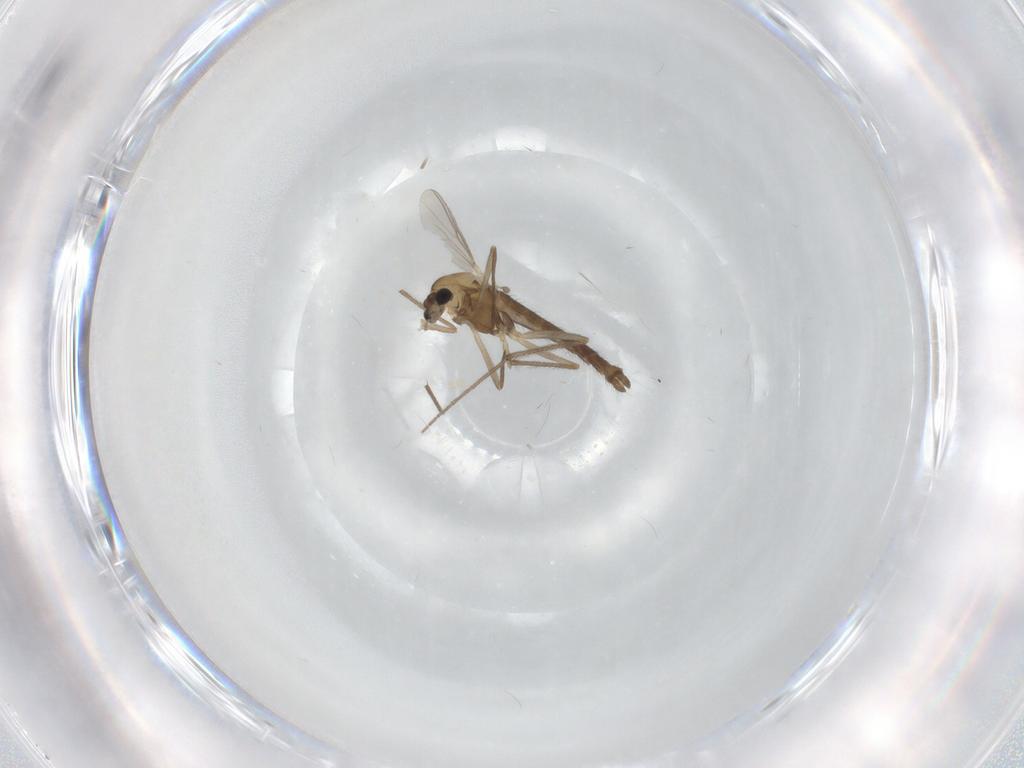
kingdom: Animalia
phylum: Arthropoda
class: Insecta
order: Diptera
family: Chironomidae
